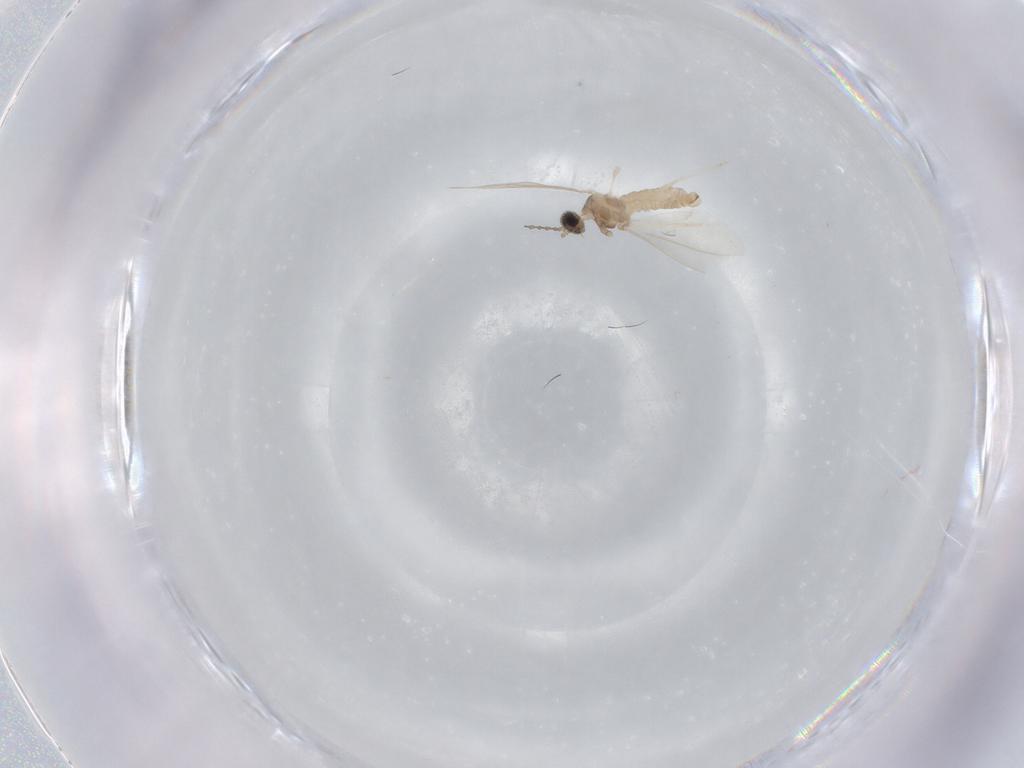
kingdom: Animalia
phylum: Arthropoda
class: Insecta
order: Diptera
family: Cecidomyiidae
